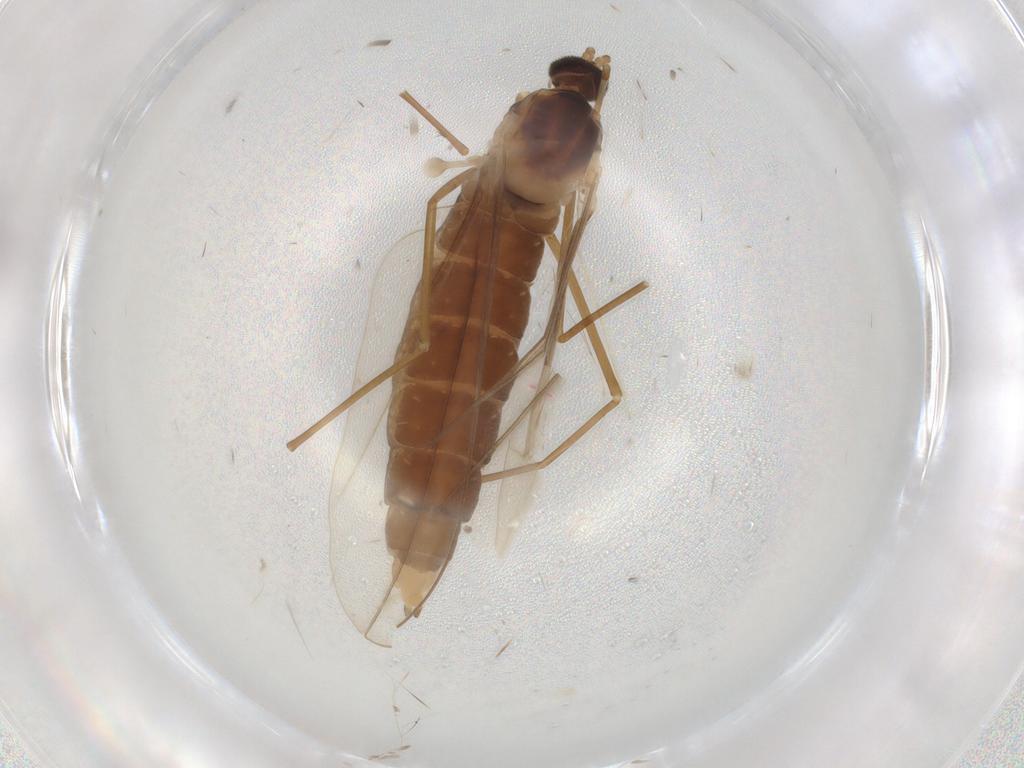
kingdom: Animalia
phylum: Arthropoda
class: Insecta
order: Diptera
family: Cecidomyiidae
